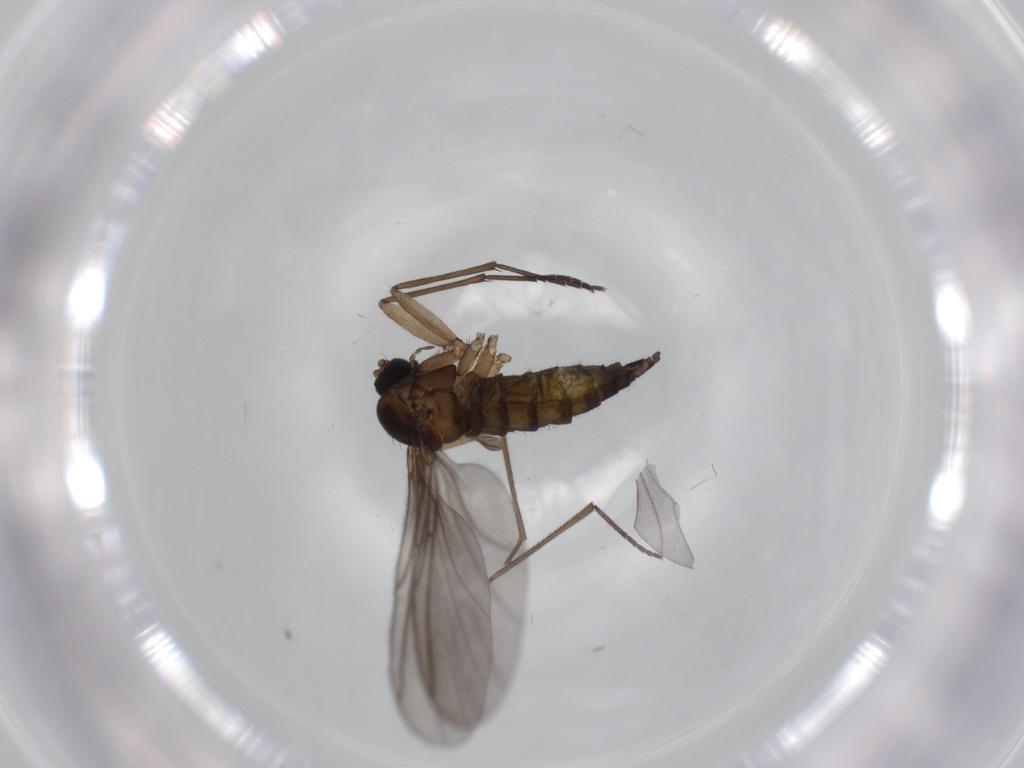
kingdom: Animalia
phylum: Arthropoda
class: Insecta
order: Diptera
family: Sciaridae
